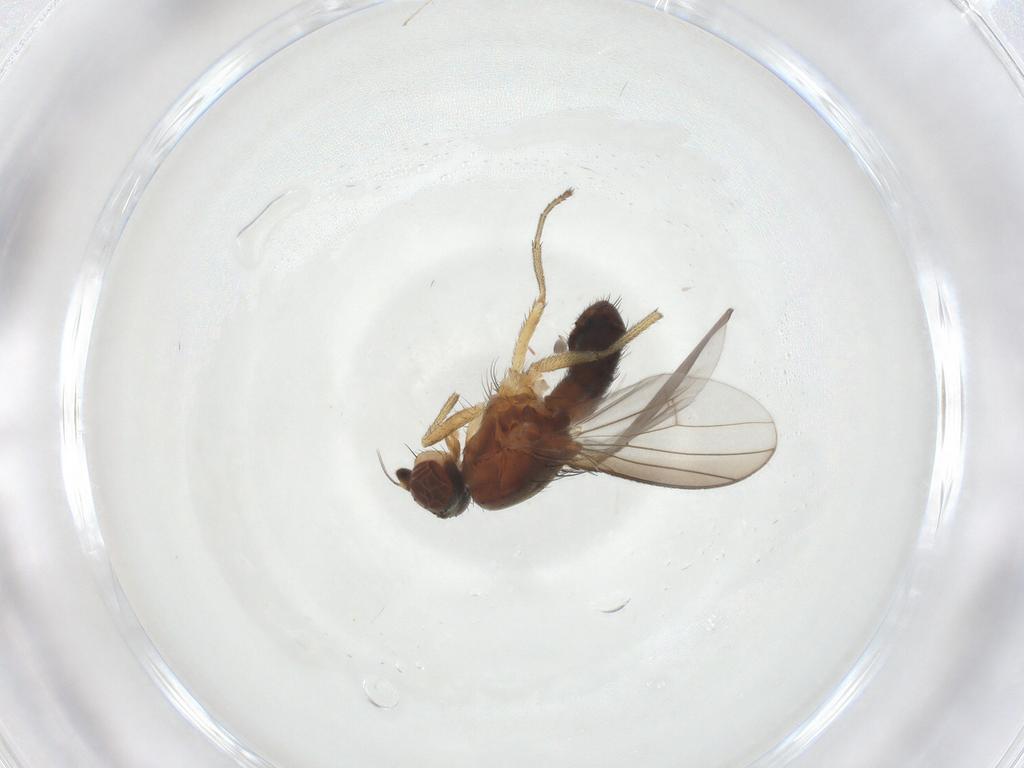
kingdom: Animalia
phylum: Arthropoda
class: Insecta
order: Diptera
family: Heleomyzidae
